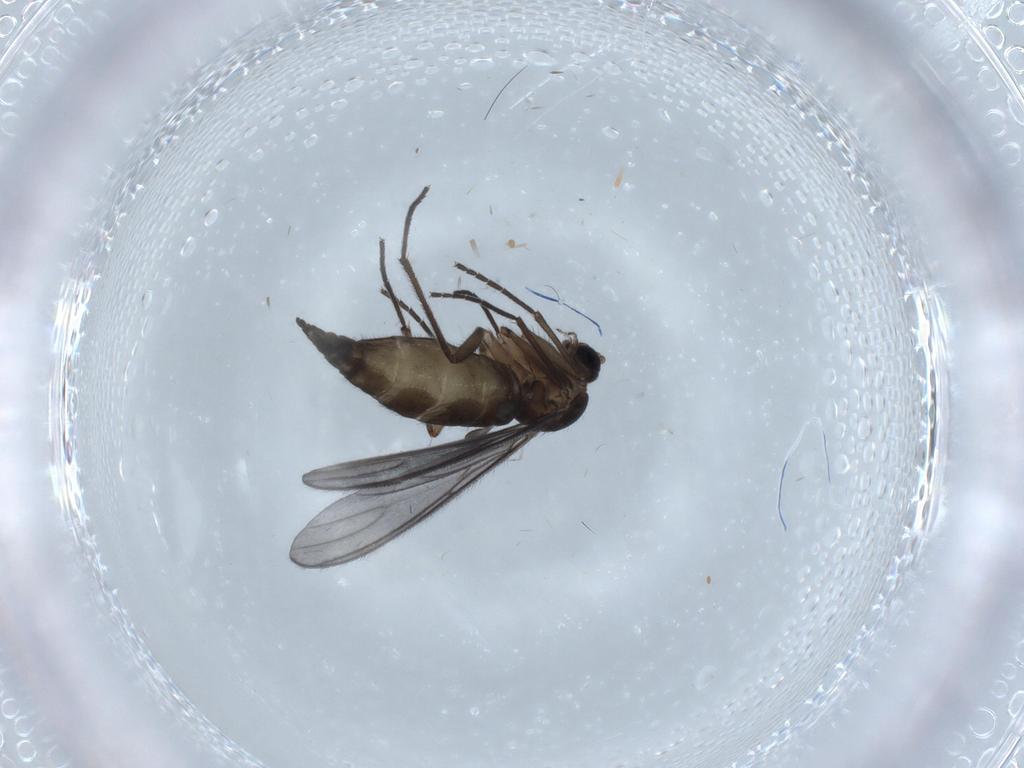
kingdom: Animalia
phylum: Arthropoda
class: Insecta
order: Diptera
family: Sciaridae
